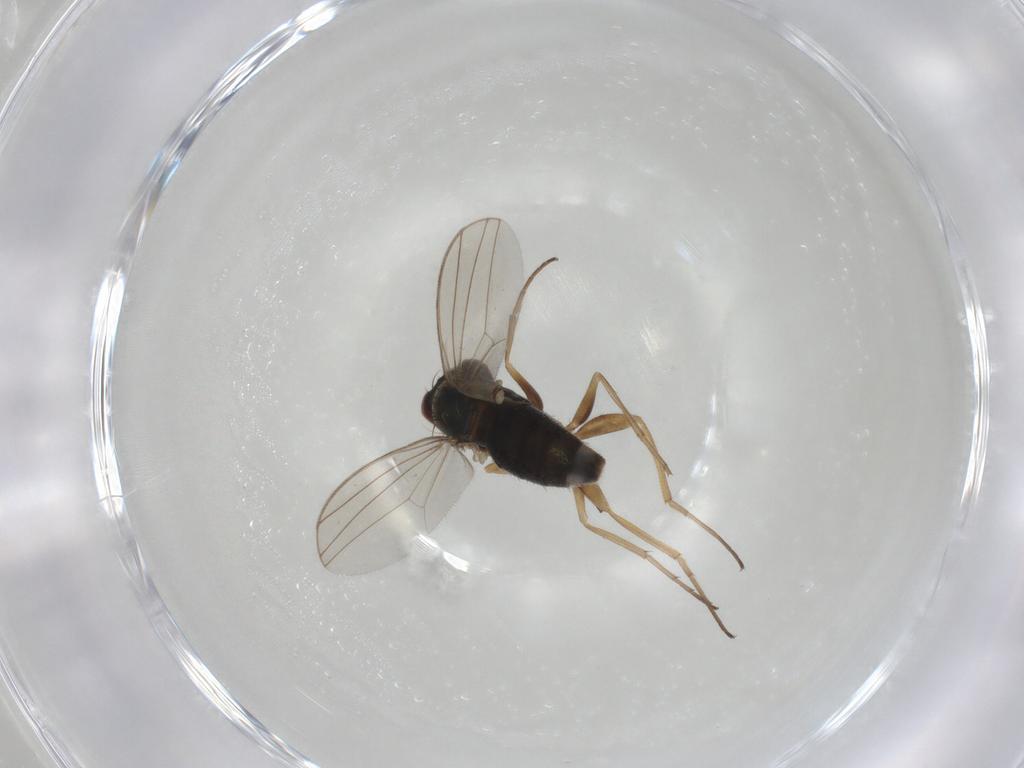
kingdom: Animalia
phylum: Arthropoda
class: Insecta
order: Diptera
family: Dolichopodidae
